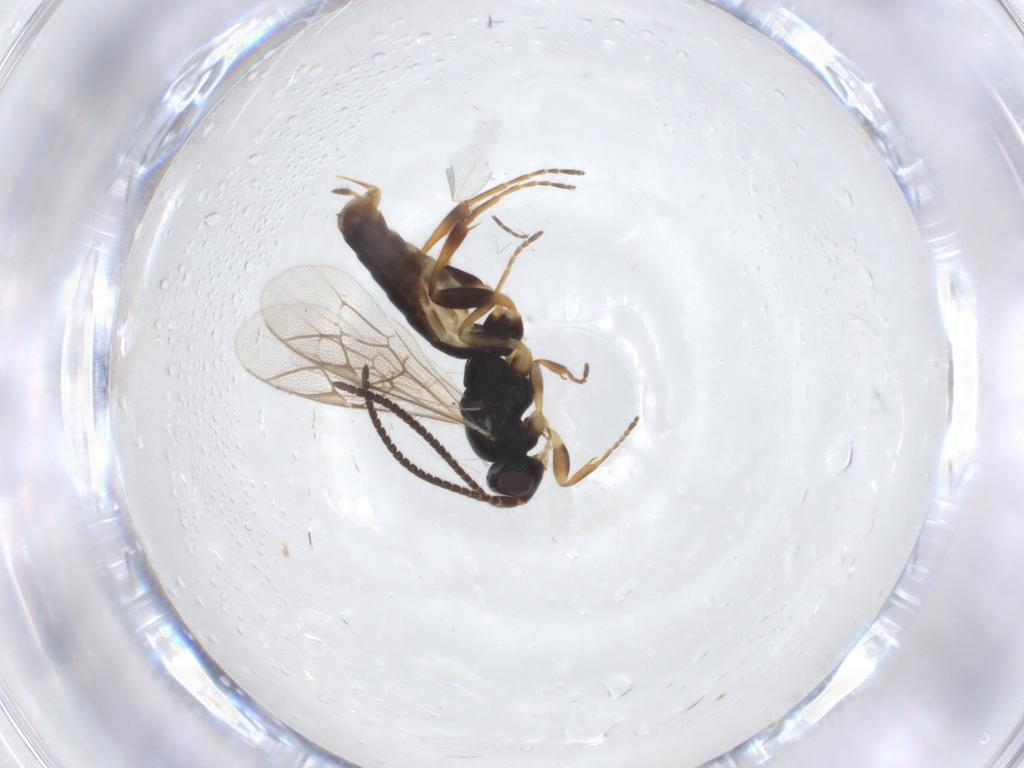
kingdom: Animalia
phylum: Arthropoda
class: Insecta
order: Hymenoptera
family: Ichneumonidae
